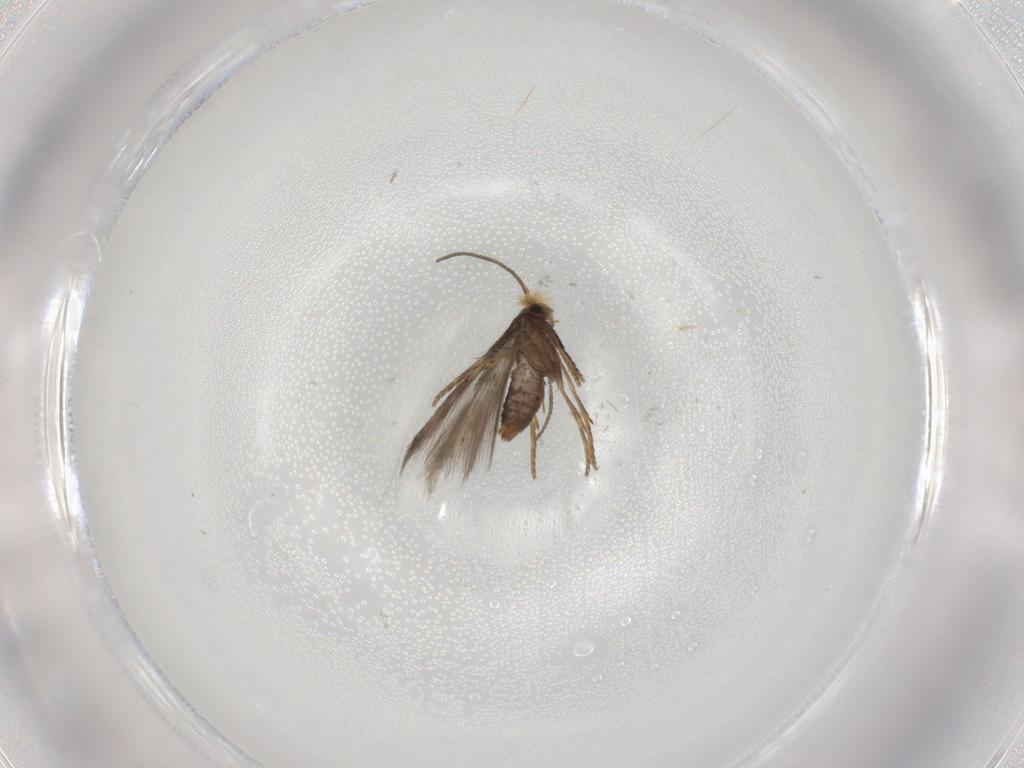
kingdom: Animalia
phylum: Arthropoda
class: Insecta
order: Lepidoptera
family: Nepticulidae
